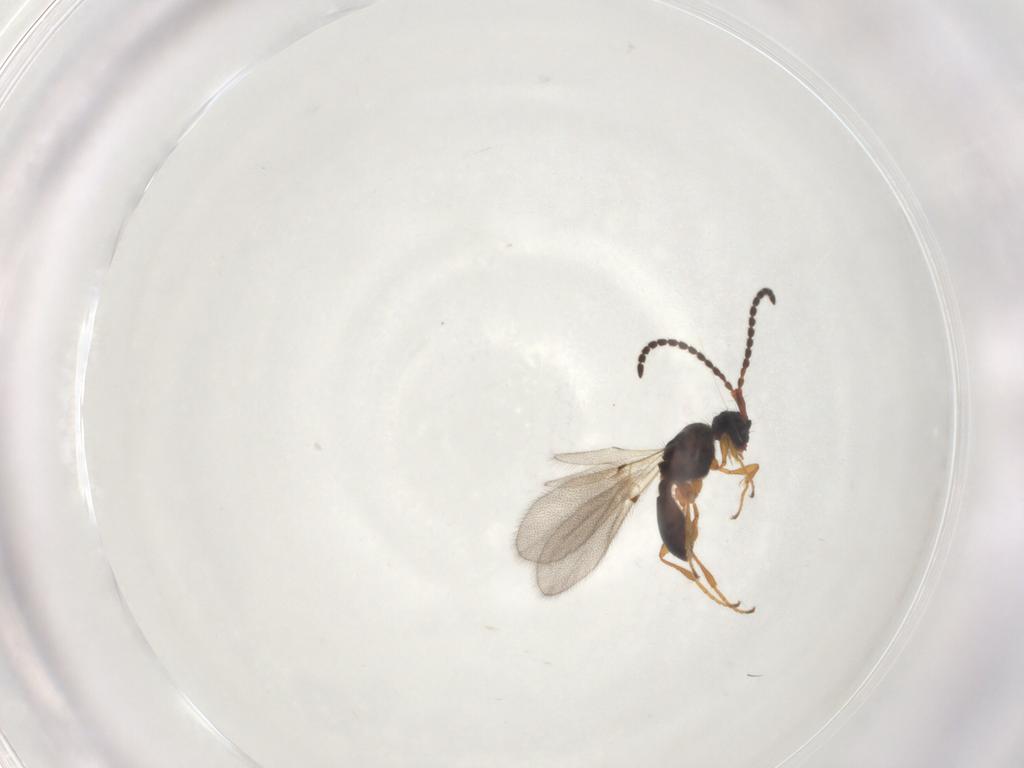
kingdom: Animalia
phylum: Arthropoda
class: Insecta
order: Hymenoptera
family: Diapriidae
